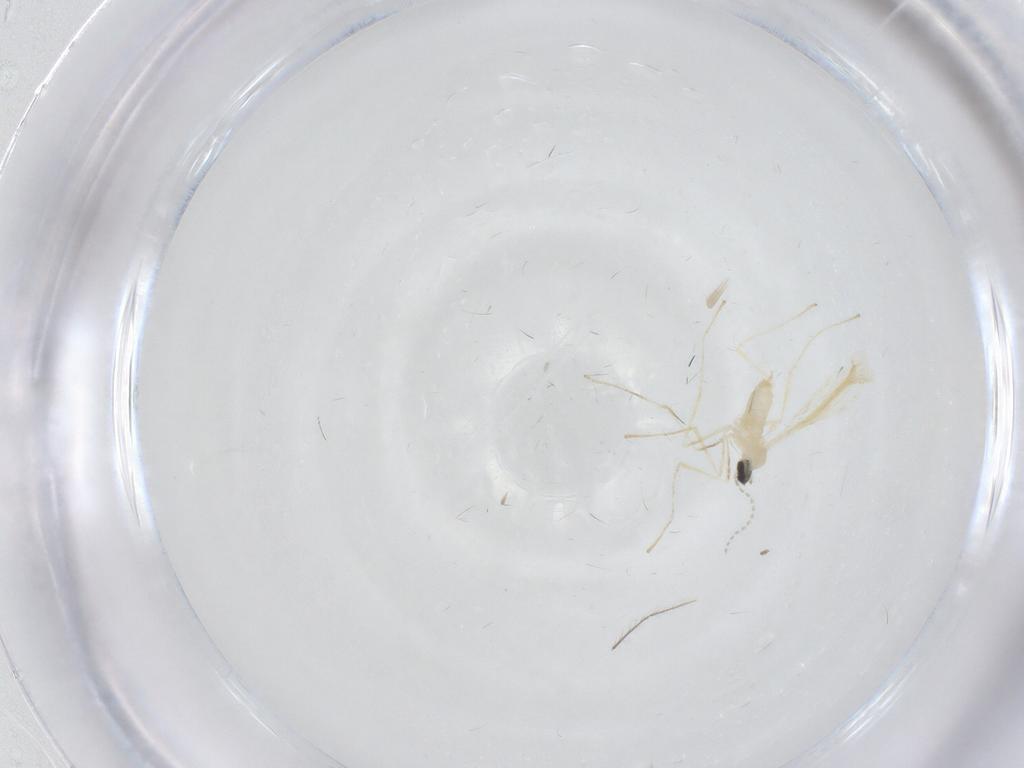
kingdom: Animalia
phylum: Arthropoda
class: Insecta
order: Diptera
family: Cecidomyiidae
